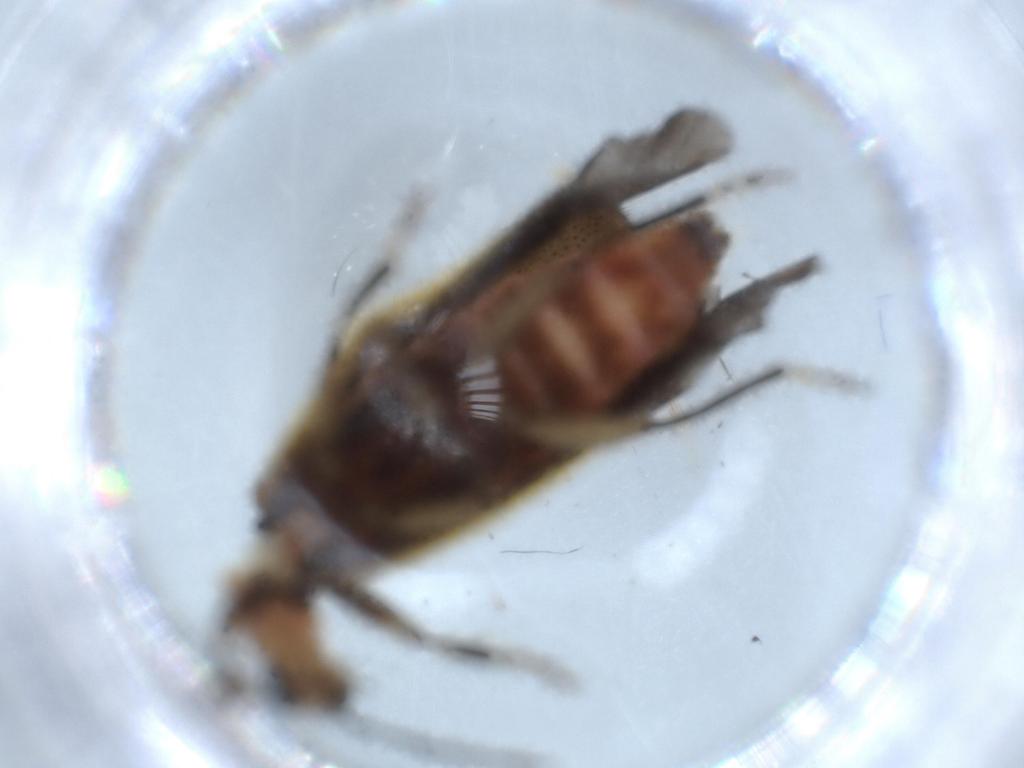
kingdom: Animalia
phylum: Arthropoda
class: Insecta
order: Coleoptera
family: Cleridae
